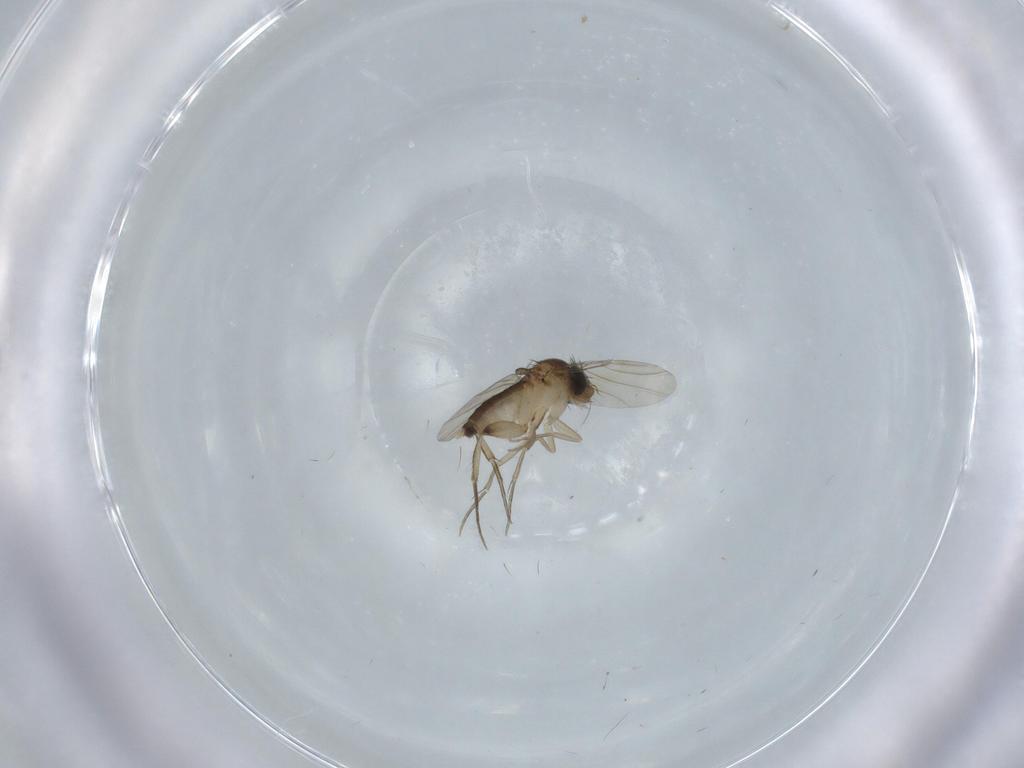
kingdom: Animalia
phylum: Arthropoda
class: Insecta
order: Diptera
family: Phoridae
